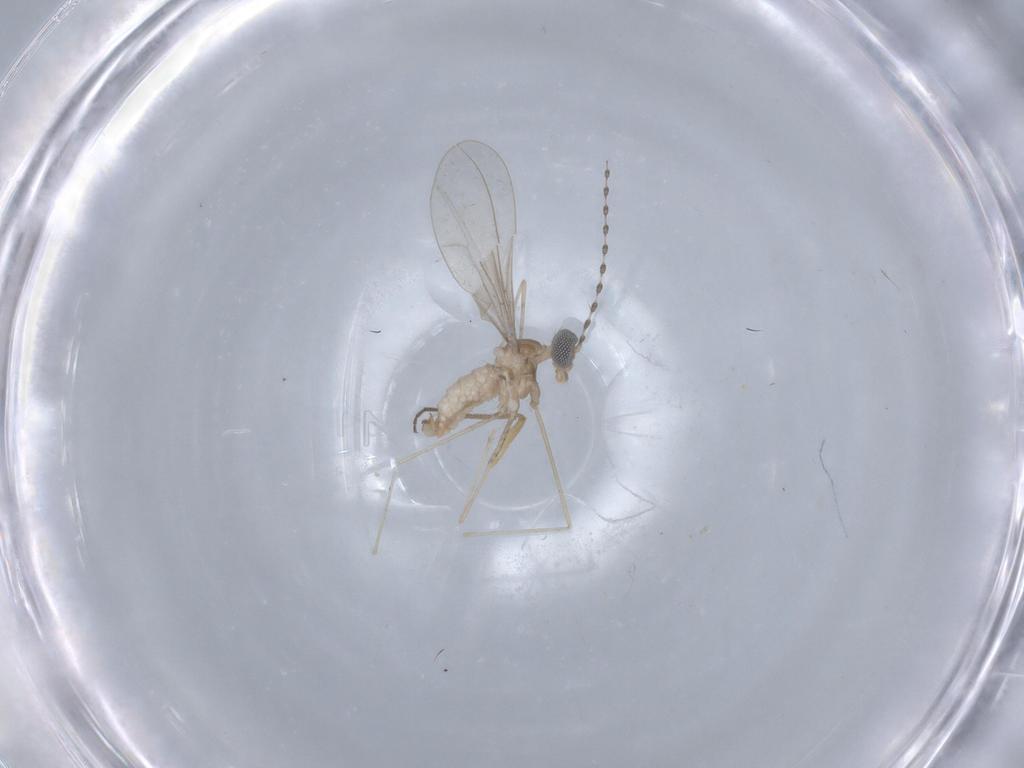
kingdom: Animalia
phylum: Arthropoda
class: Insecta
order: Diptera
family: Cecidomyiidae
